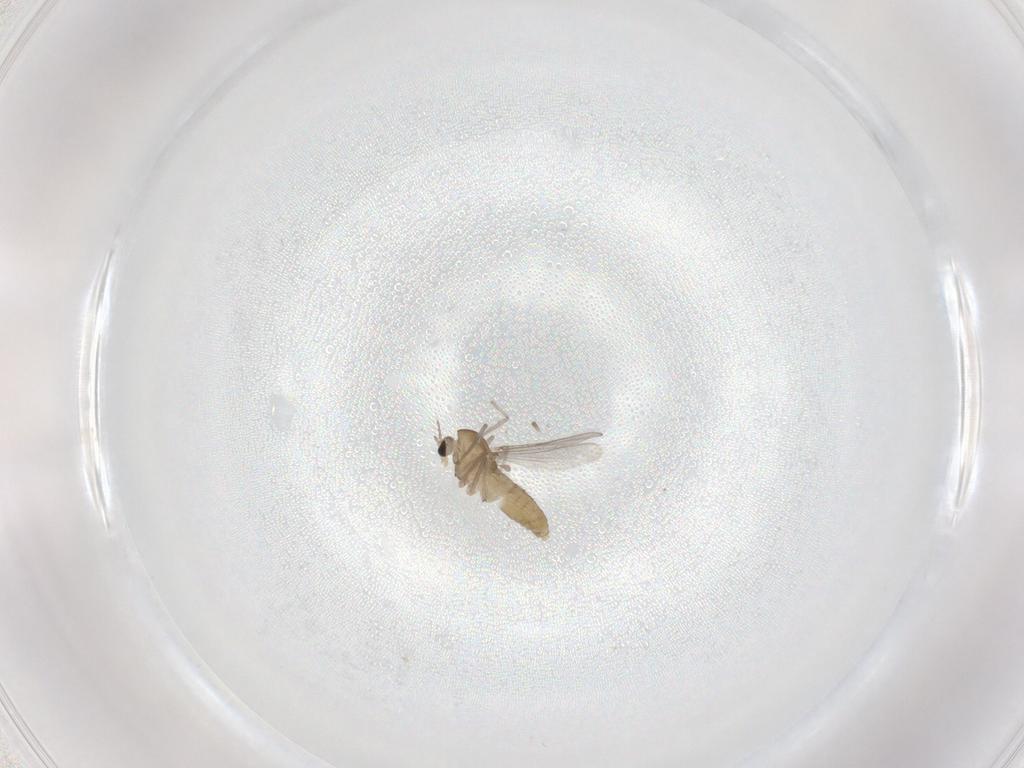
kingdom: Animalia
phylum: Arthropoda
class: Insecta
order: Diptera
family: Chironomidae
